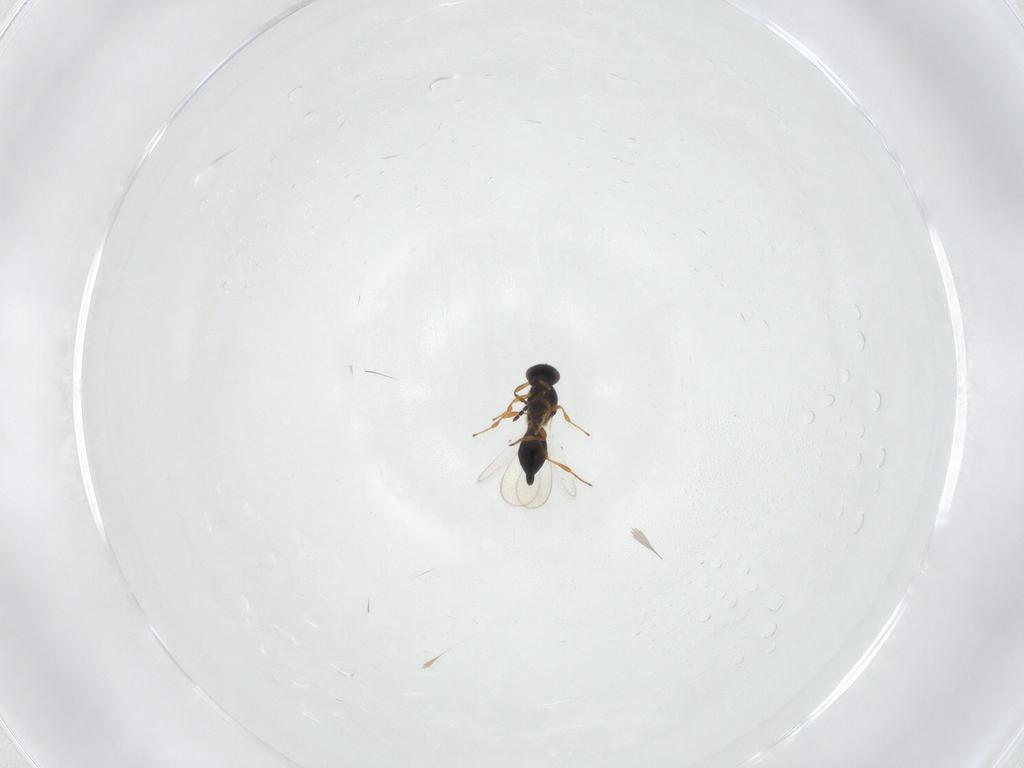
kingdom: Animalia
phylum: Arthropoda
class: Insecta
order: Hymenoptera
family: Platygastridae
